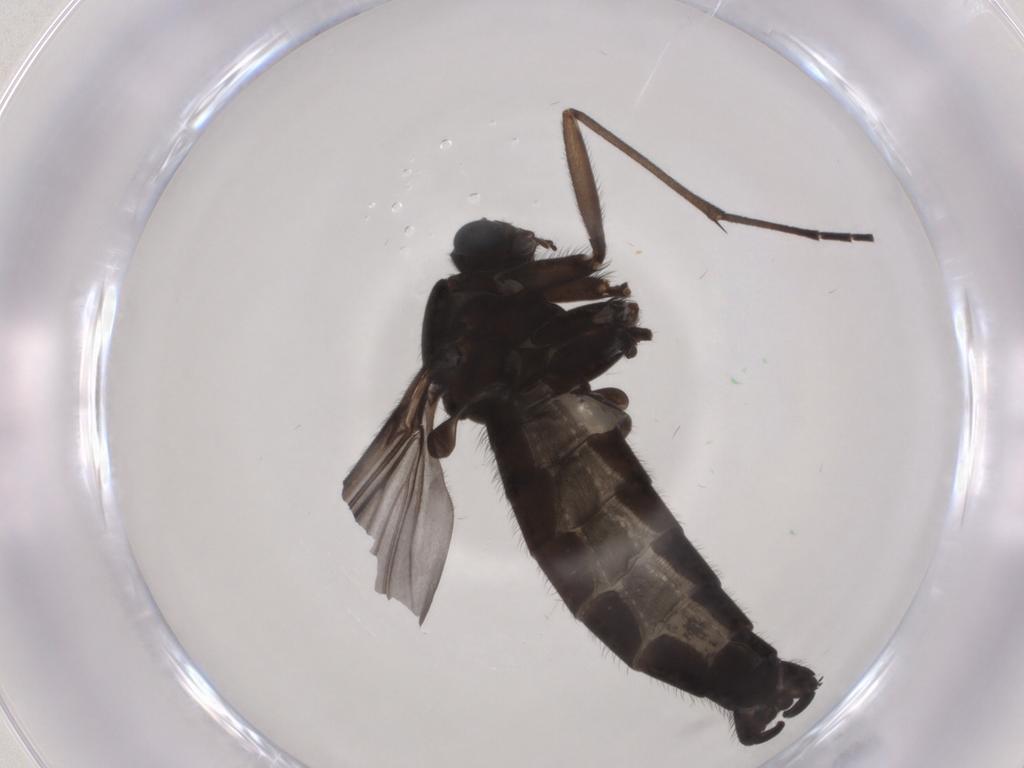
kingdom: Animalia
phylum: Arthropoda
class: Insecta
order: Diptera
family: Sciaridae
